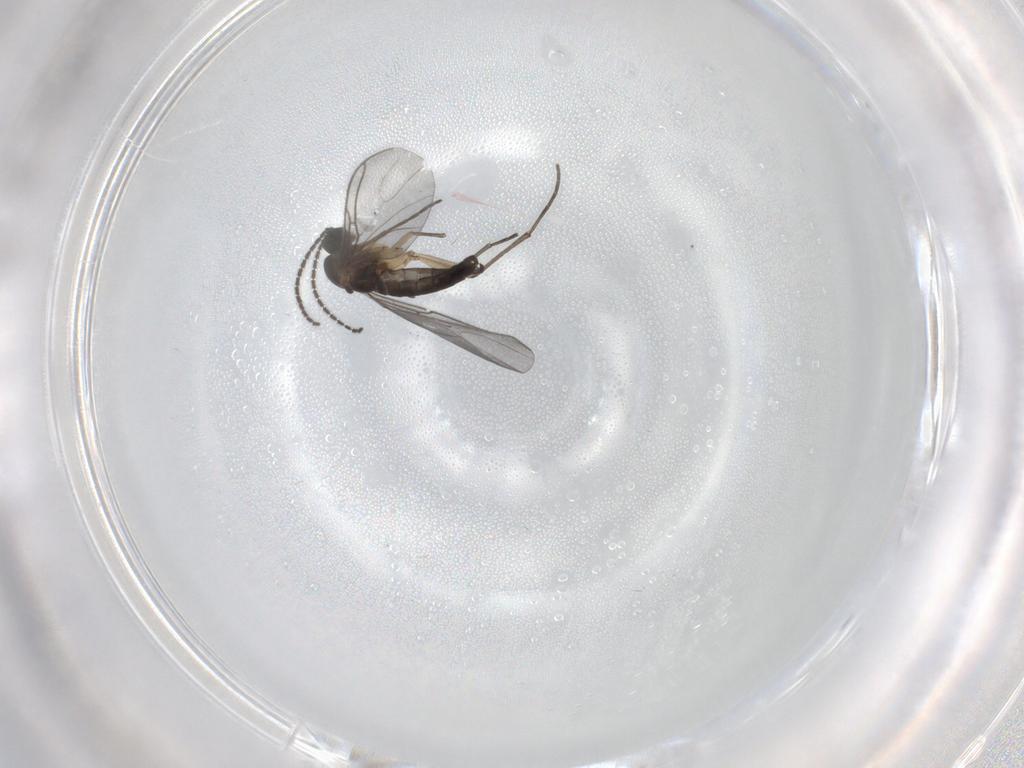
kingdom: Animalia
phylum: Arthropoda
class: Insecta
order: Diptera
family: Sciaridae
